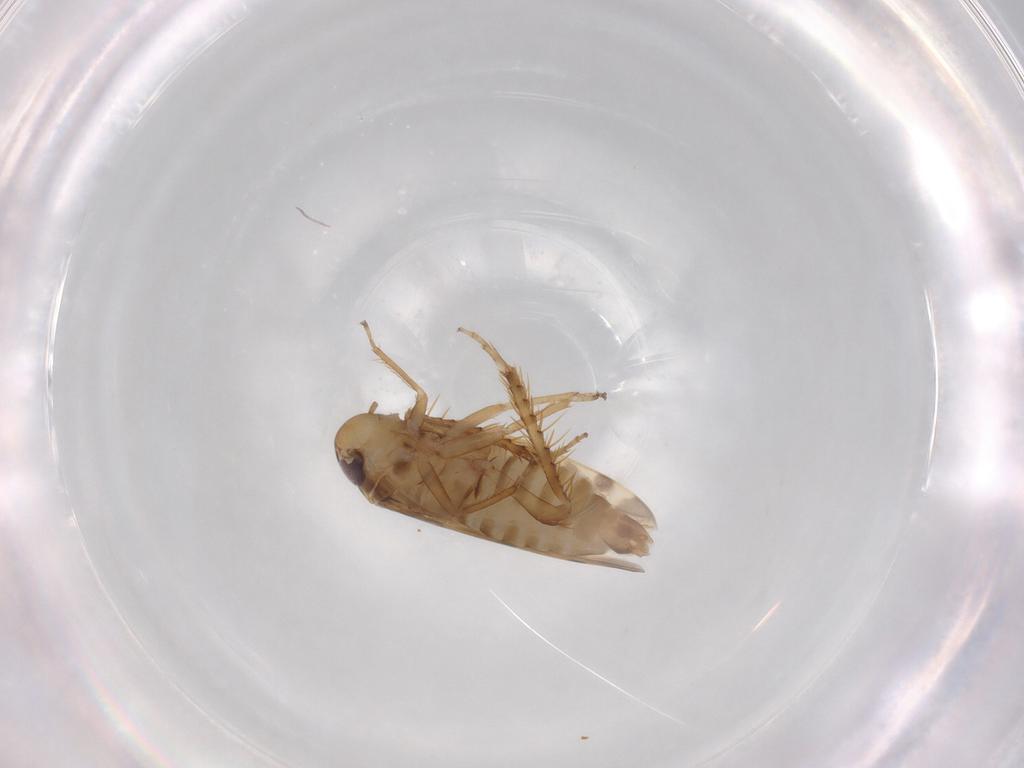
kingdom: Animalia
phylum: Arthropoda
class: Insecta
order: Hemiptera
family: Cicadellidae
